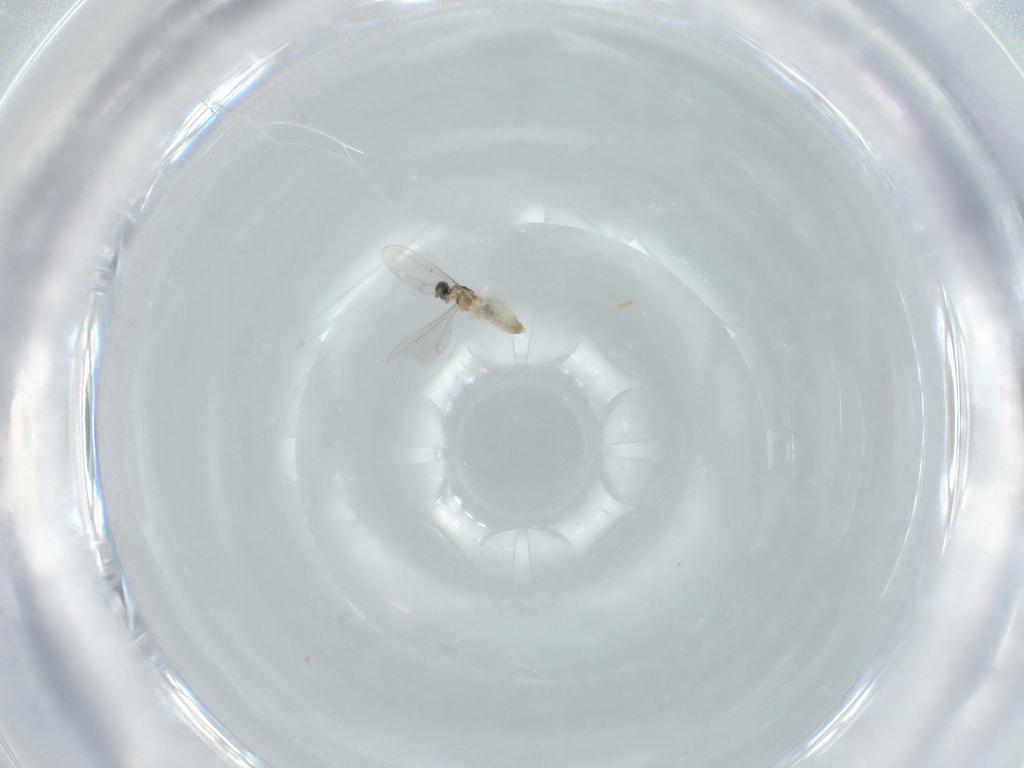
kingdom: Animalia
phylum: Arthropoda
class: Insecta
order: Diptera
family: Cecidomyiidae
